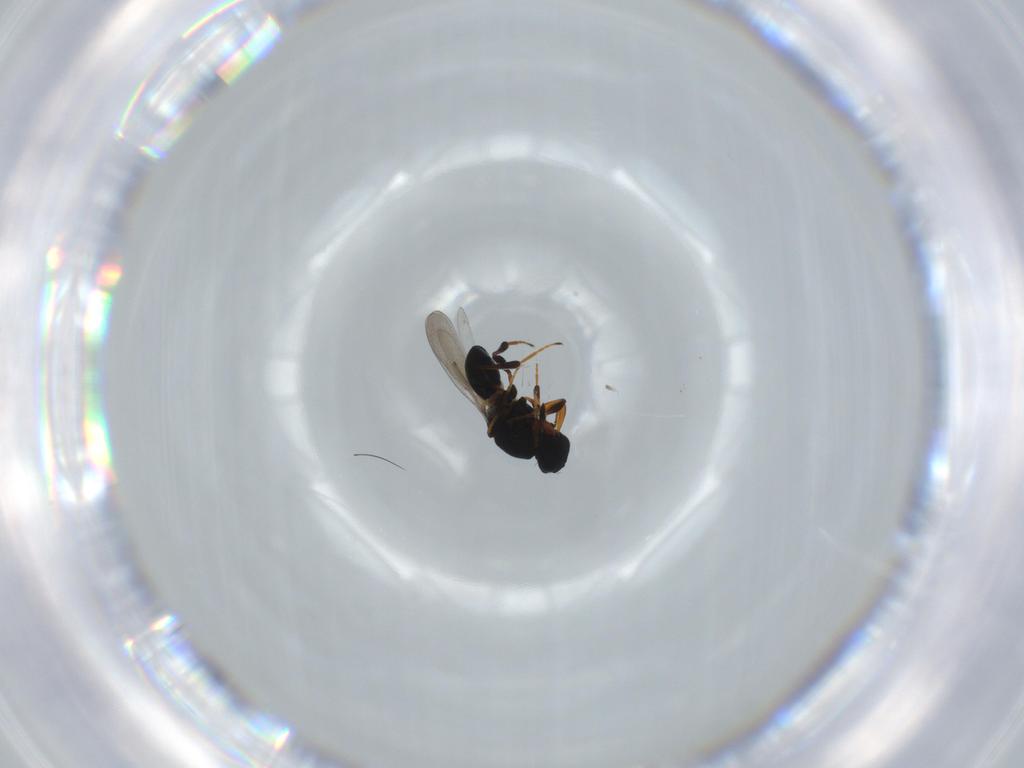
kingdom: Animalia
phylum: Arthropoda
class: Insecta
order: Hymenoptera
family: Platygastridae
